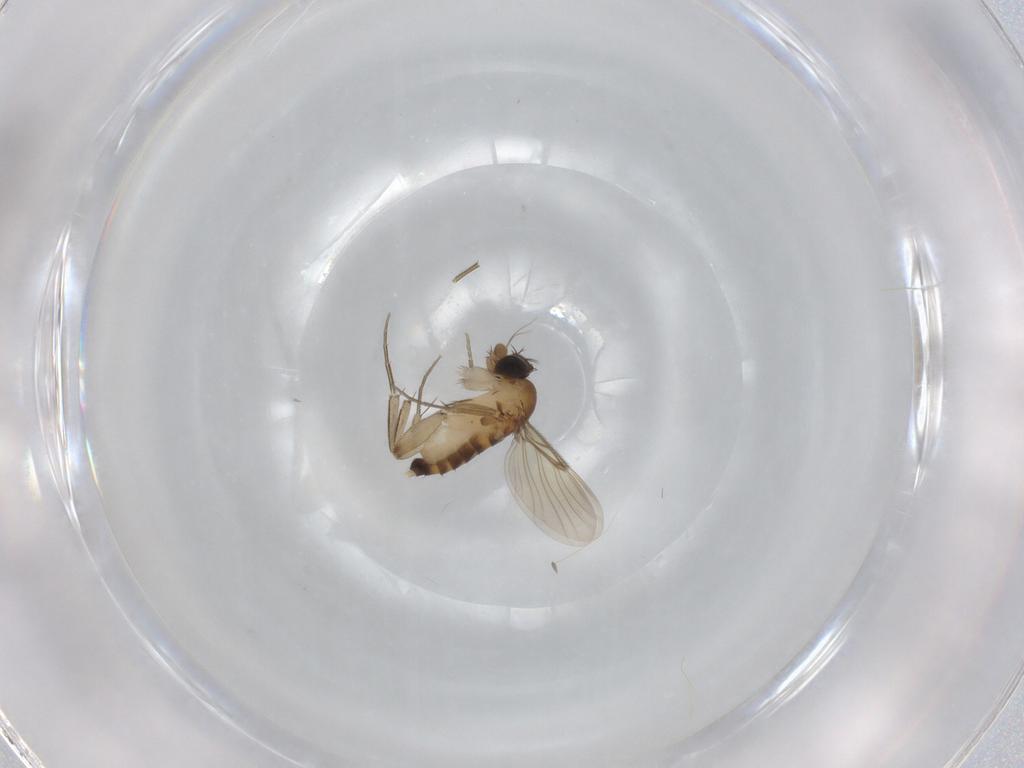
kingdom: Animalia
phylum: Arthropoda
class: Insecta
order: Diptera
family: Phoridae
